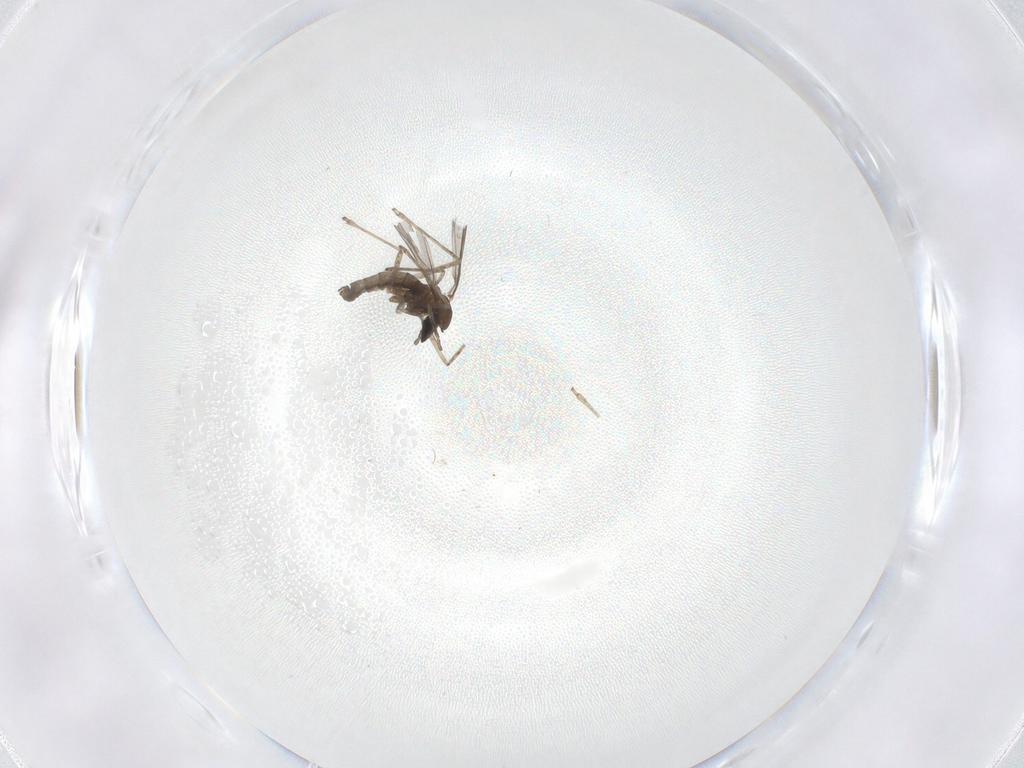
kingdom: Animalia
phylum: Arthropoda
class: Insecta
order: Diptera
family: Cecidomyiidae
